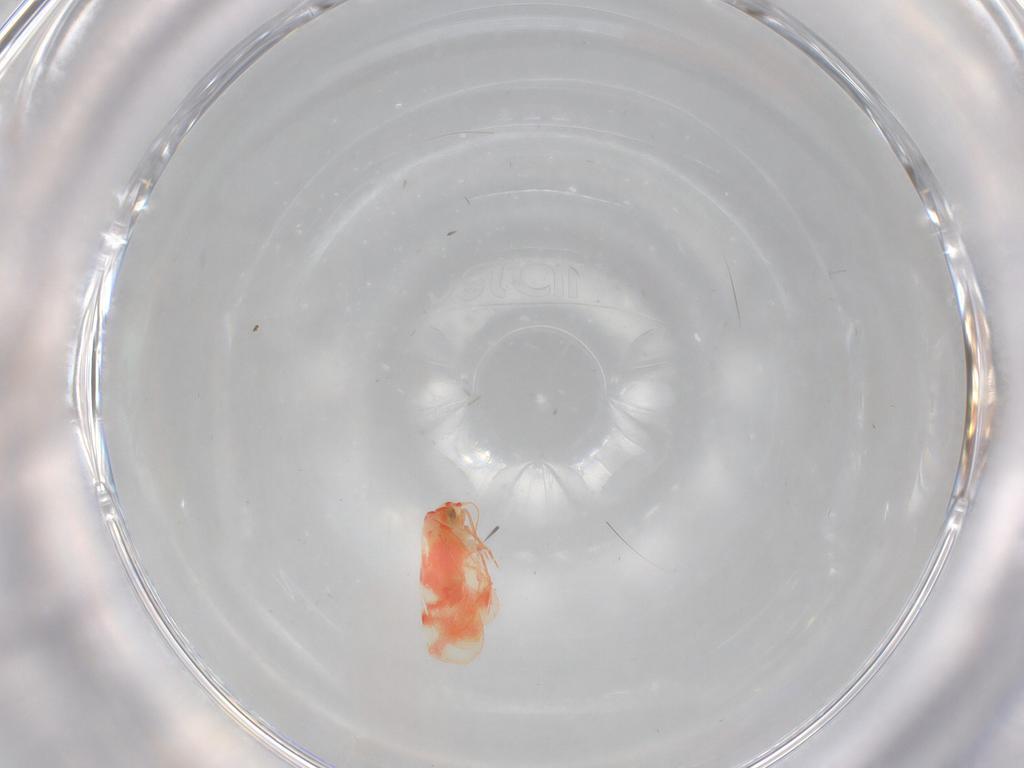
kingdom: Animalia
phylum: Arthropoda
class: Insecta
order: Hemiptera
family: Aleyrodidae
